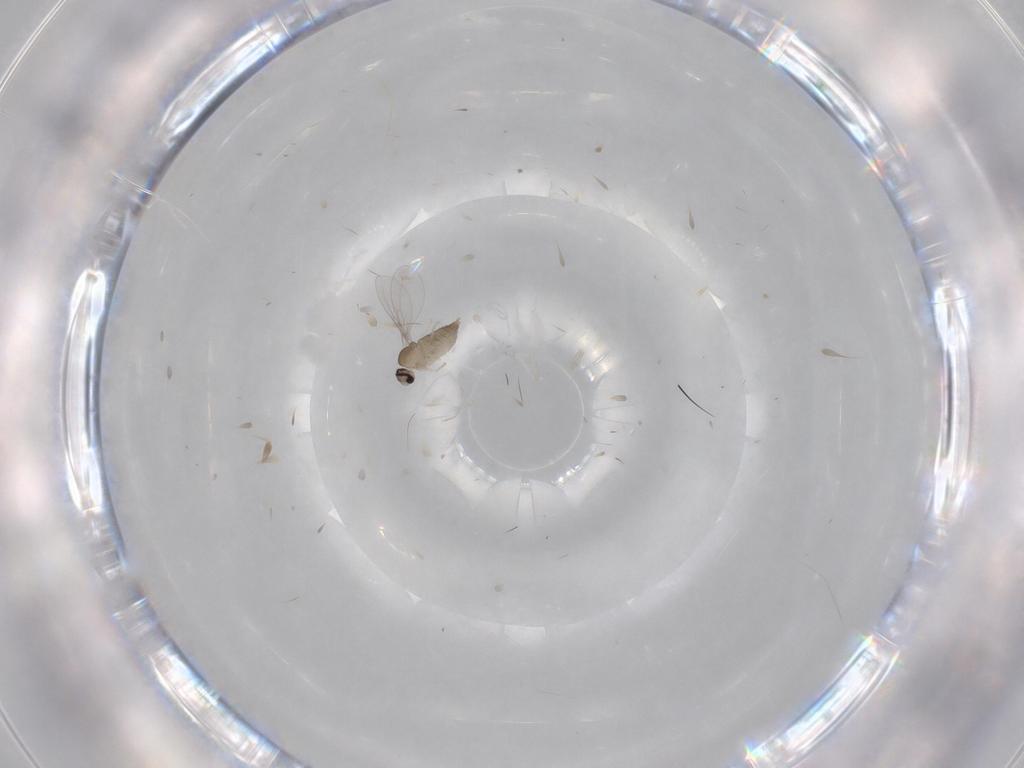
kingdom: Animalia
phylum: Arthropoda
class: Insecta
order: Diptera
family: Cecidomyiidae
